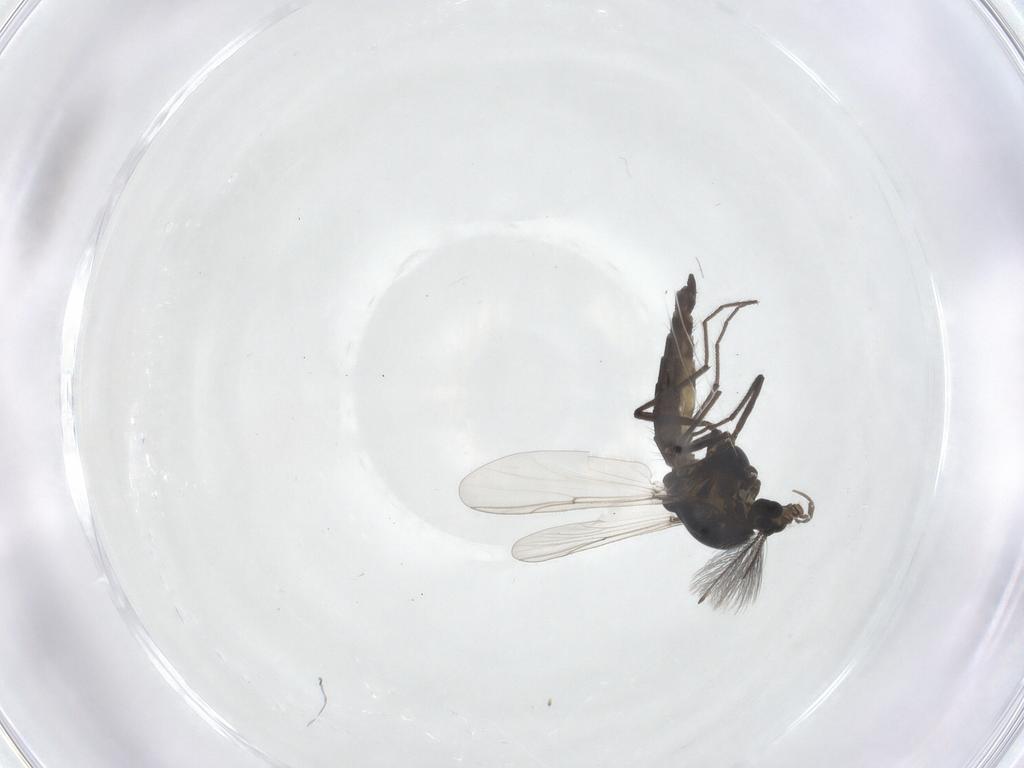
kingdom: Animalia
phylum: Arthropoda
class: Insecta
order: Diptera
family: Chironomidae
